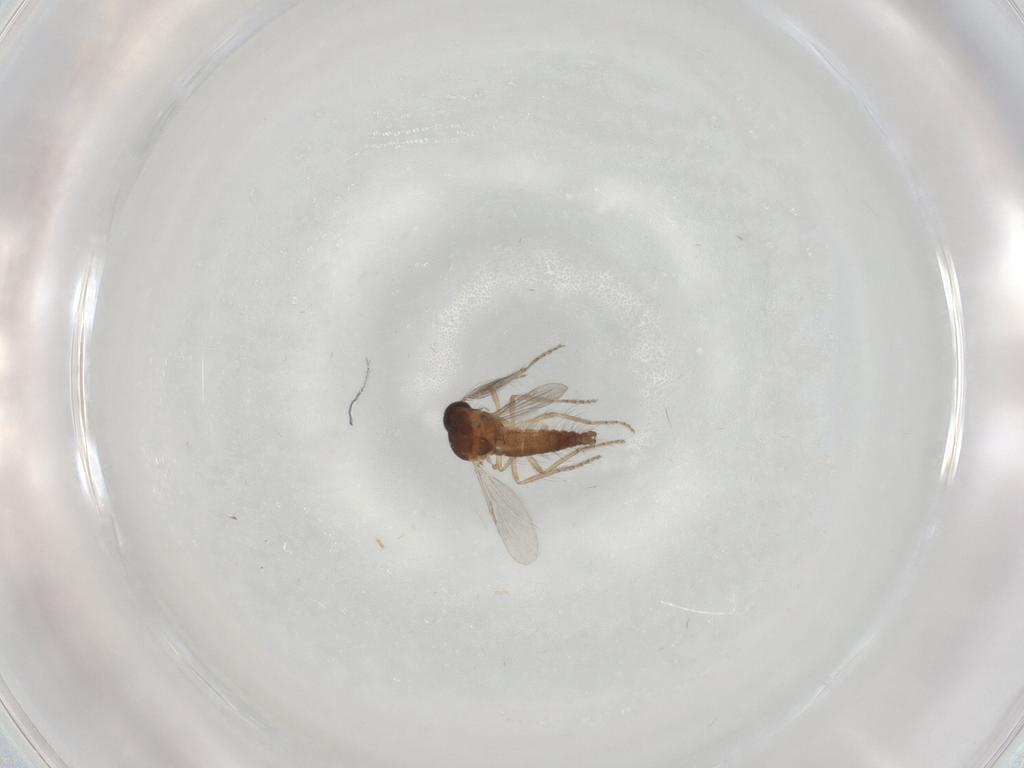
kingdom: Animalia
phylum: Arthropoda
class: Insecta
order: Diptera
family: Ceratopogonidae
